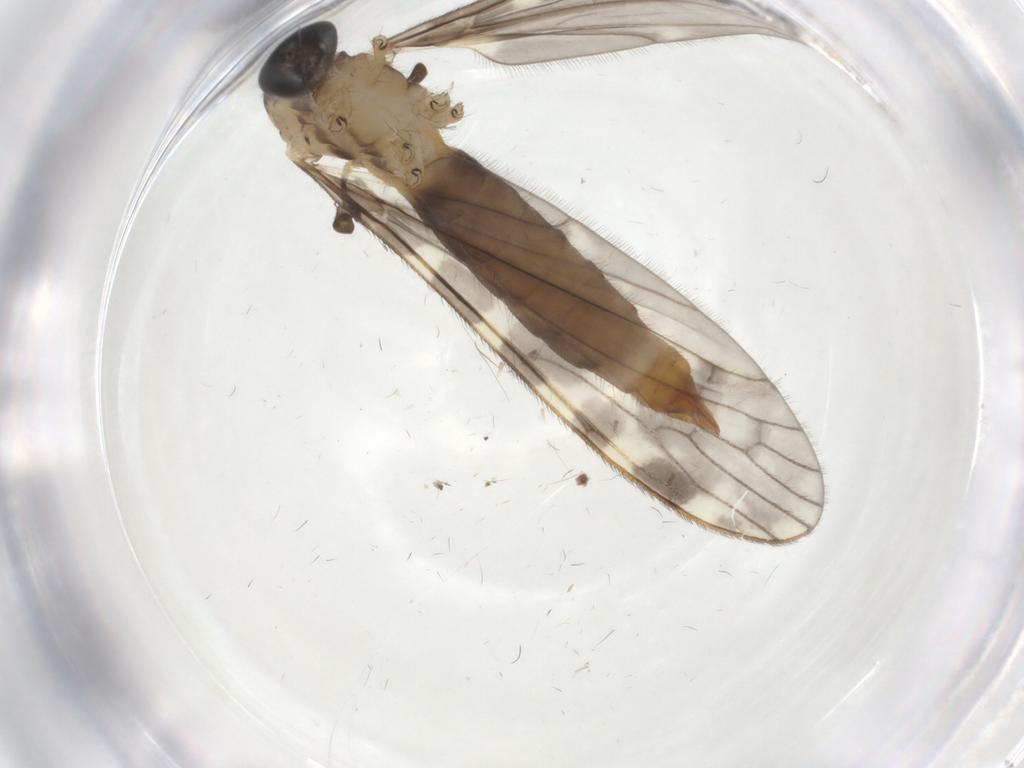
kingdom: Animalia
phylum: Arthropoda
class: Insecta
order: Diptera
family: Limoniidae
